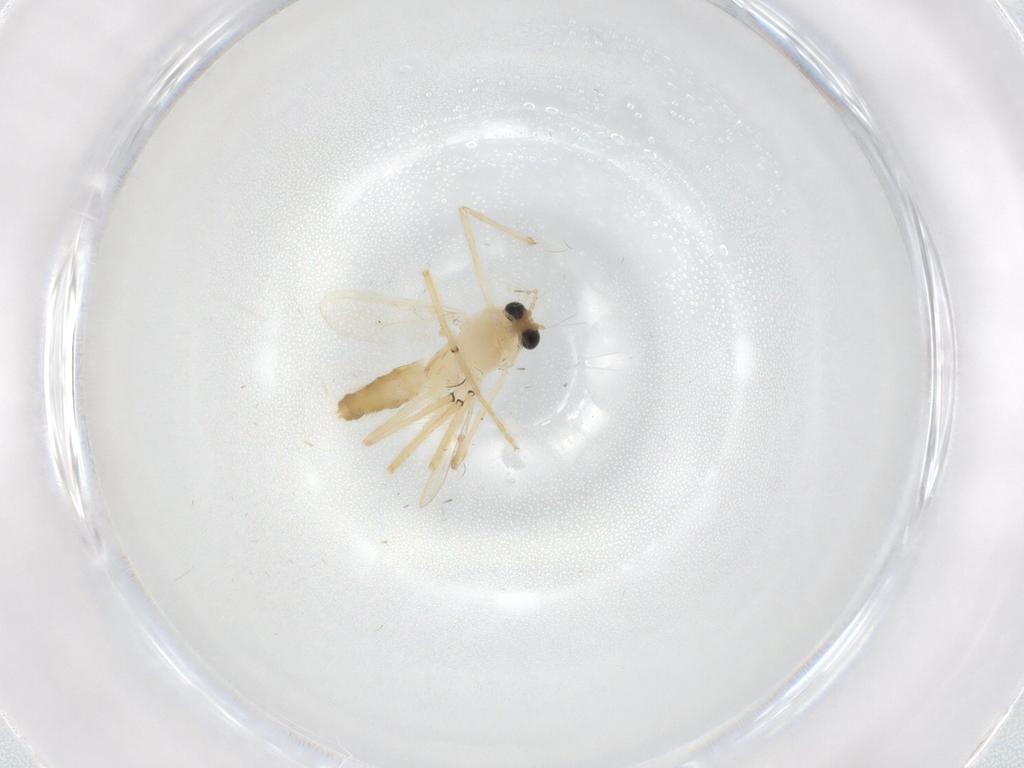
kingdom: Animalia
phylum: Arthropoda
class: Insecta
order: Diptera
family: Chironomidae
